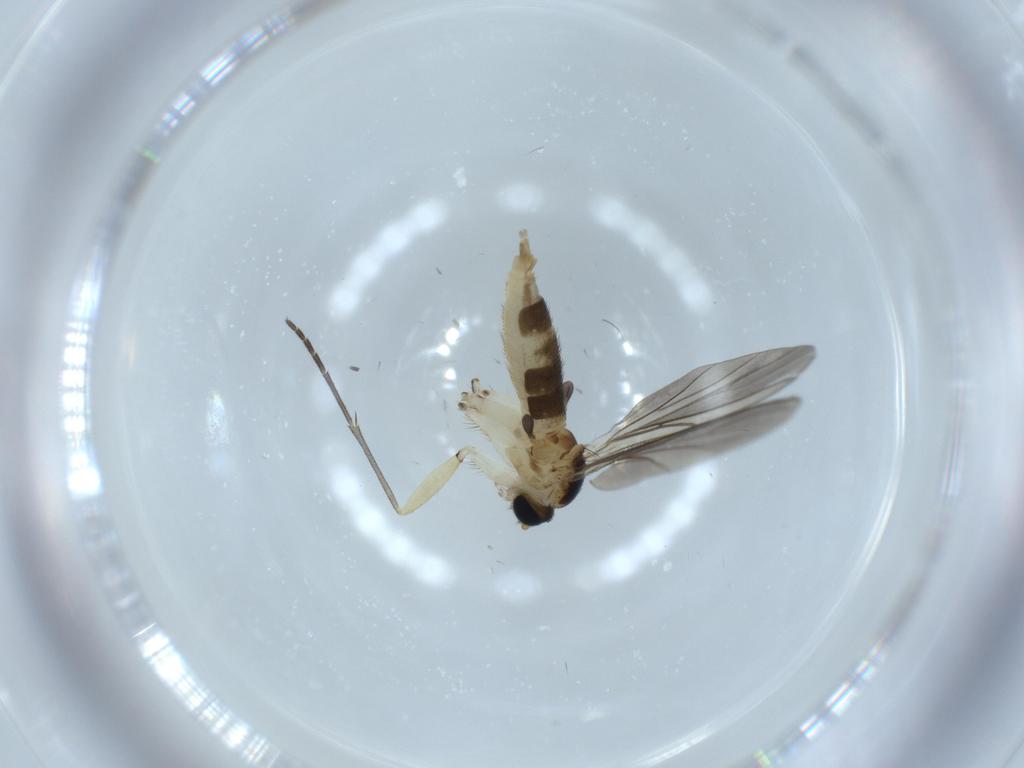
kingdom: Animalia
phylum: Arthropoda
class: Insecta
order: Diptera
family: Sciaridae
